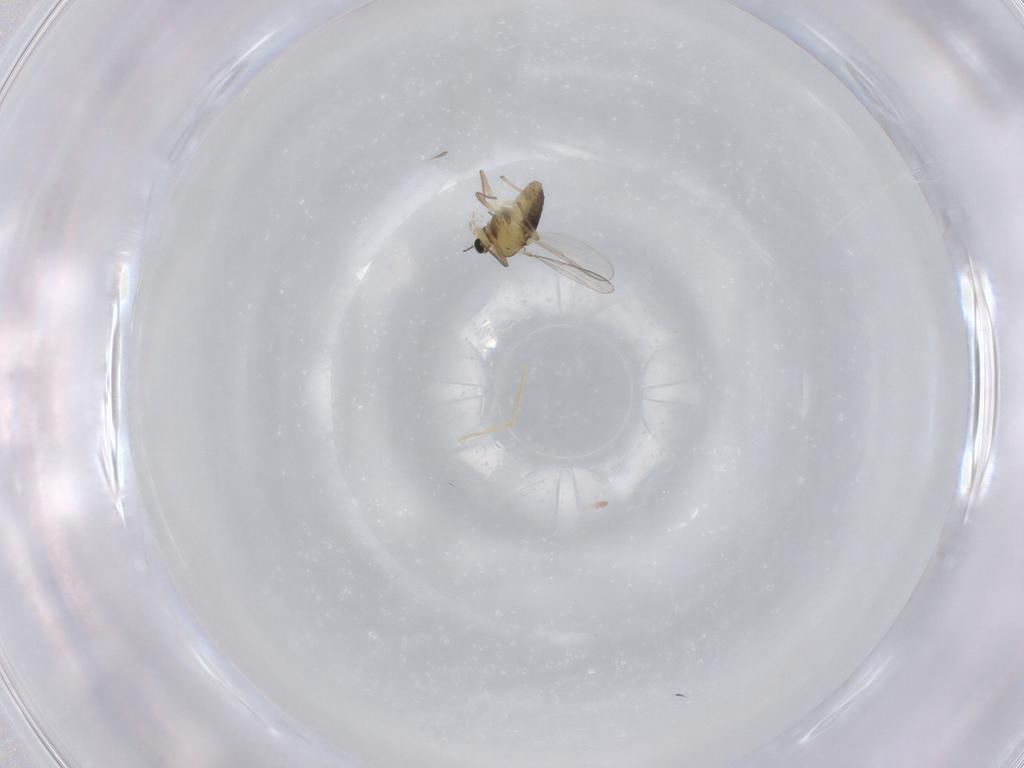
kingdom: Animalia
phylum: Arthropoda
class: Insecta
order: Diptera
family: Chironomidae
